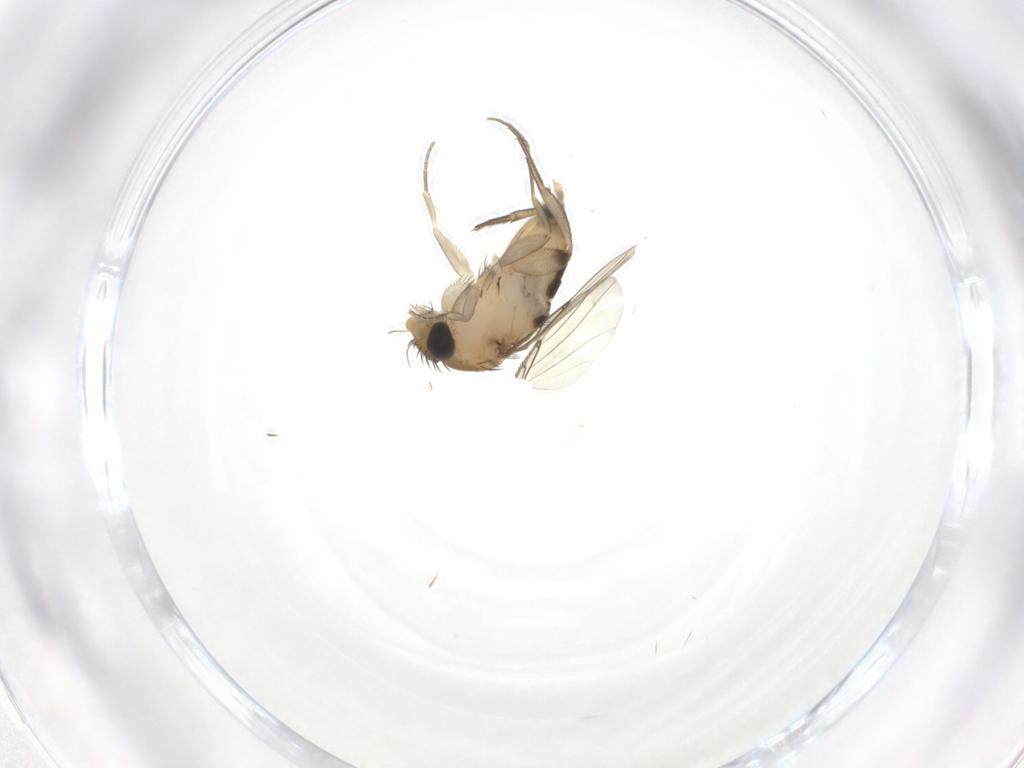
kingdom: Animalia
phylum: Arthropoda
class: Insecta
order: Diptera
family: Phoridae
